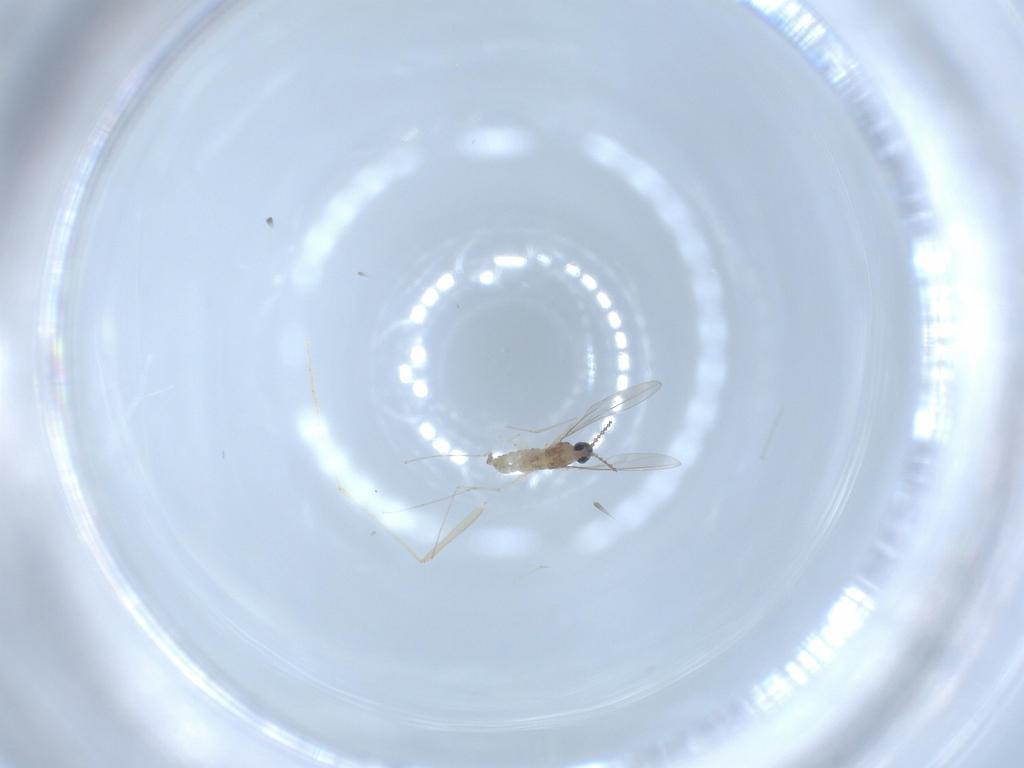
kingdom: Animalia
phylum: Arthropoda
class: Insecta
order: Diptera
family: Cecidomyiidae
